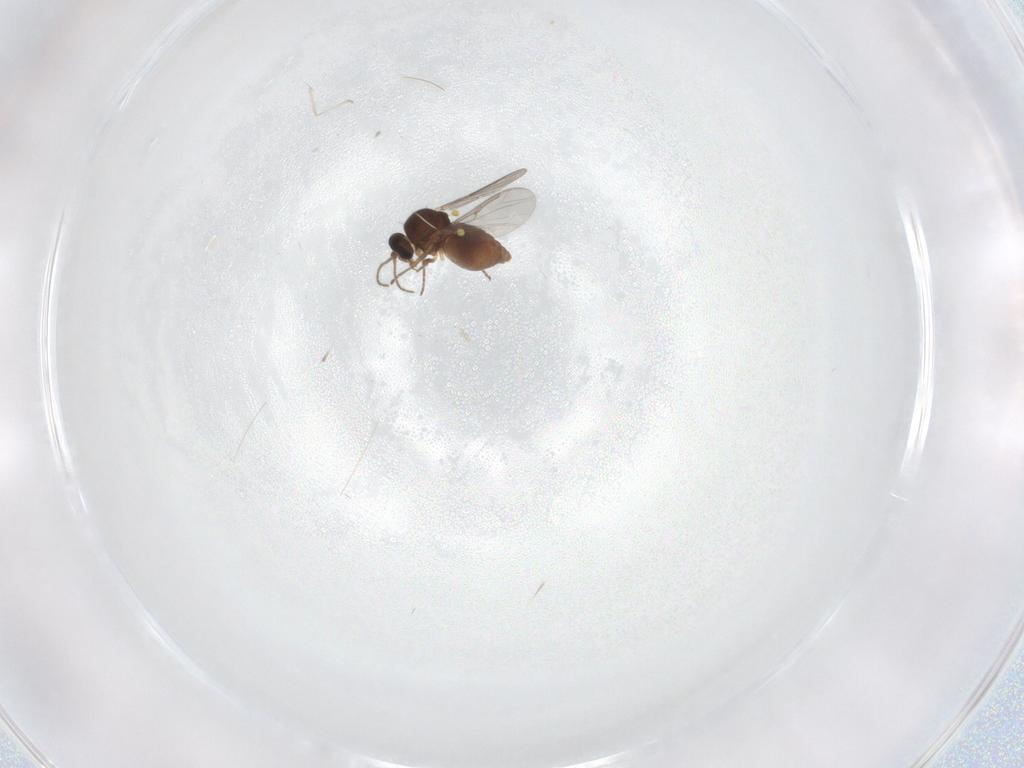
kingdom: Animalia
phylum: Arthropoda
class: Insecta
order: Diptera
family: Ceratopogonidae
